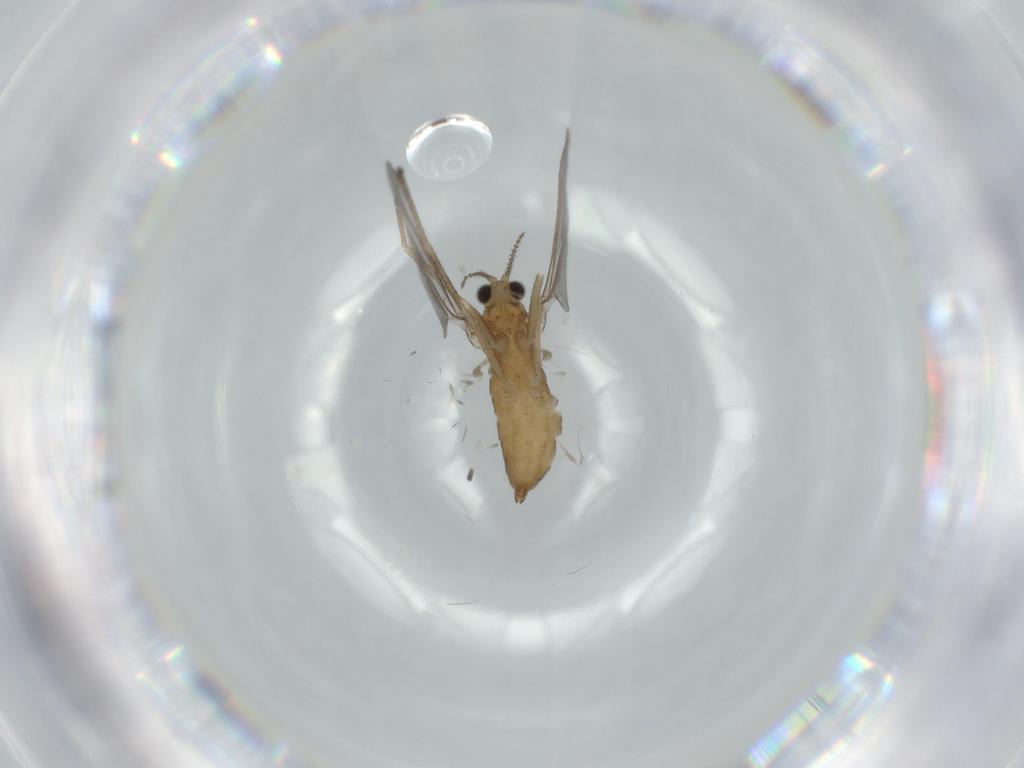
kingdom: Animalia
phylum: Arthropoda
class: Insecta
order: Diptera
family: Cecidomyiidae
